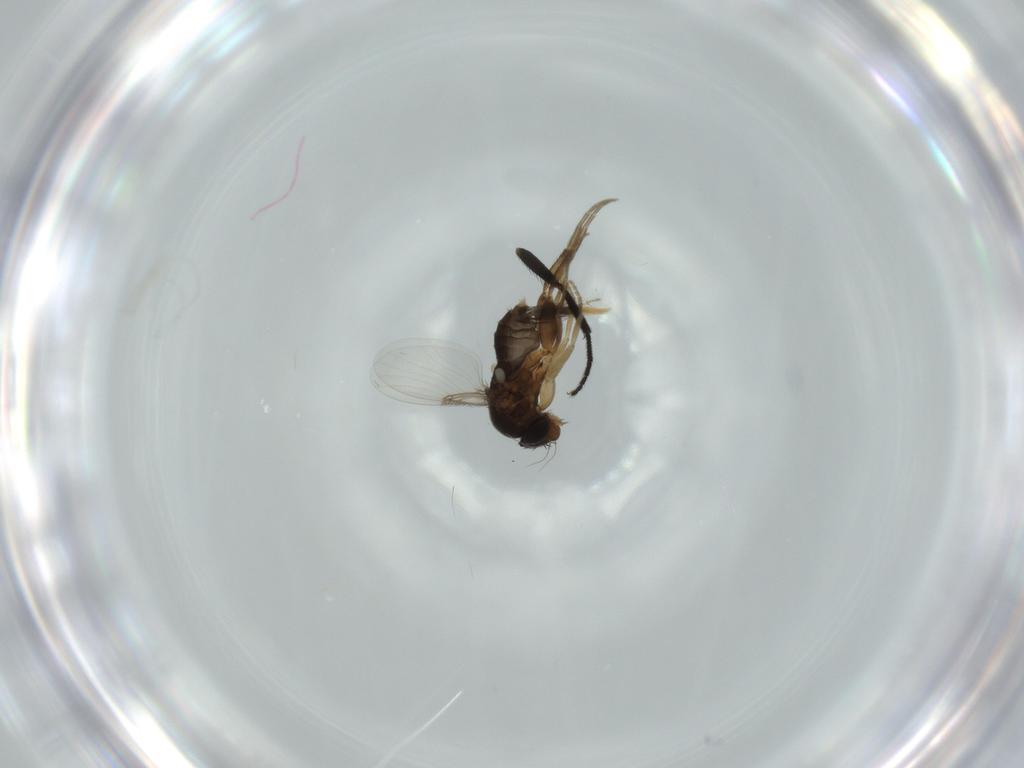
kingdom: Animalia
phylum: Arthropoda
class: Insecta
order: Diptera
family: Phoridae
